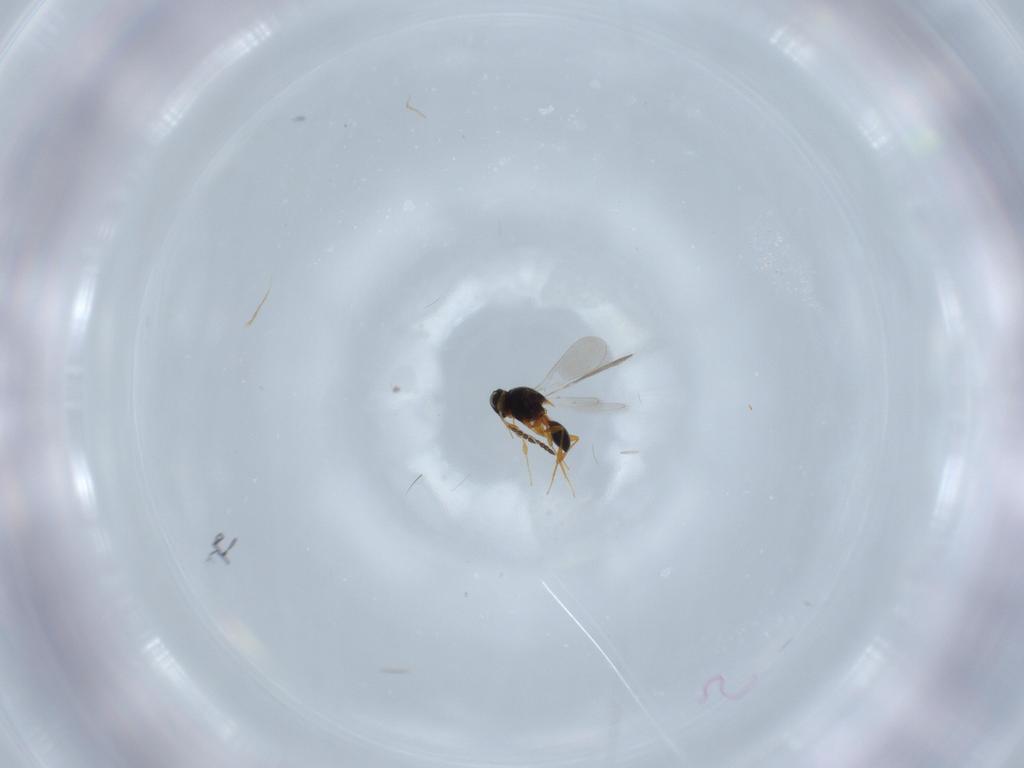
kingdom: Animalia
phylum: Arthropoda
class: Insecta
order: Hymenoptera
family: Platygastridae
